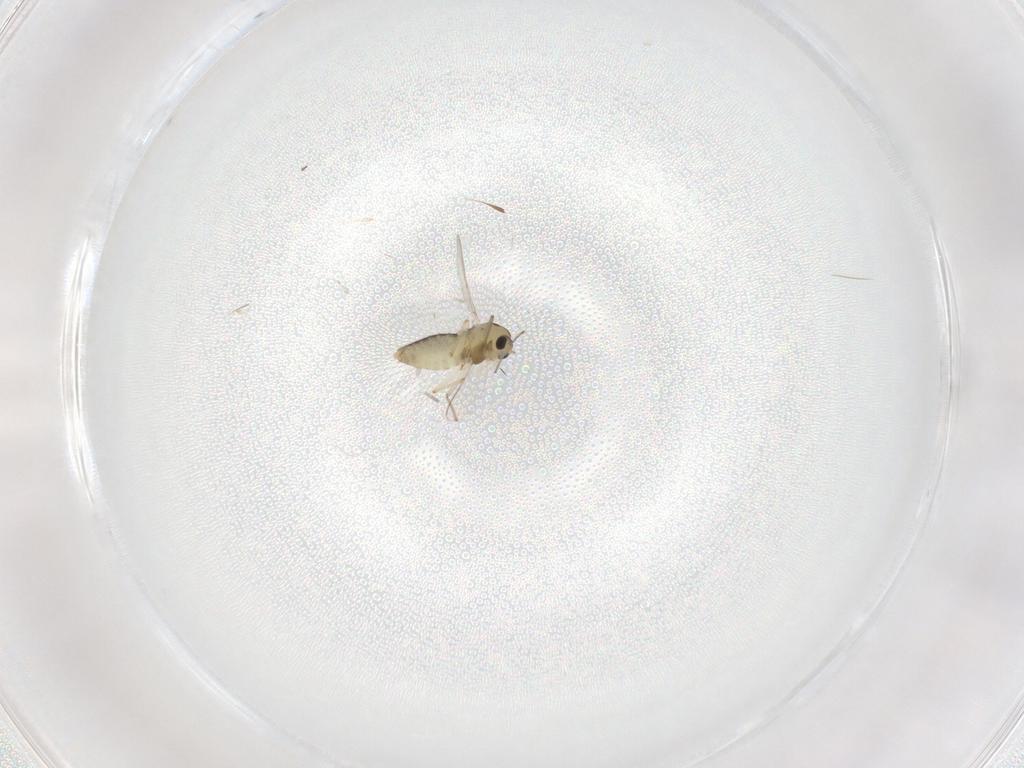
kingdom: Animalia
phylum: Arthropoda
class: Insecta
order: Diptera
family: Chironomidae
